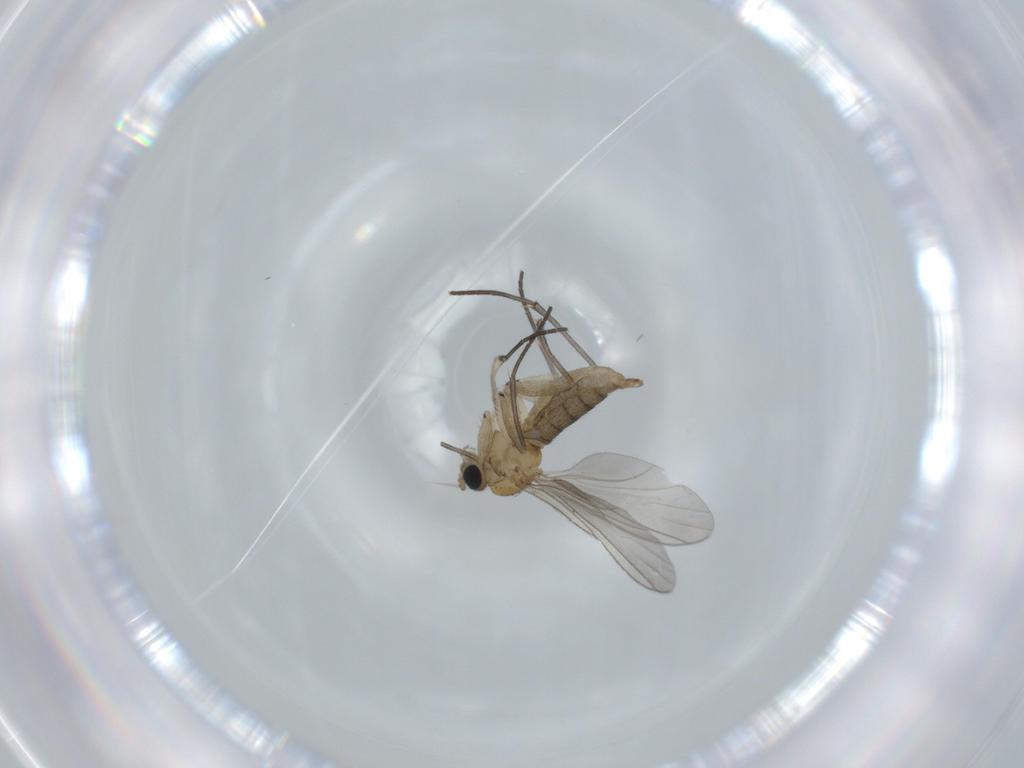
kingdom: Animalia
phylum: Arthropoda
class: Insecta
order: Diptera
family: Sciaridae
